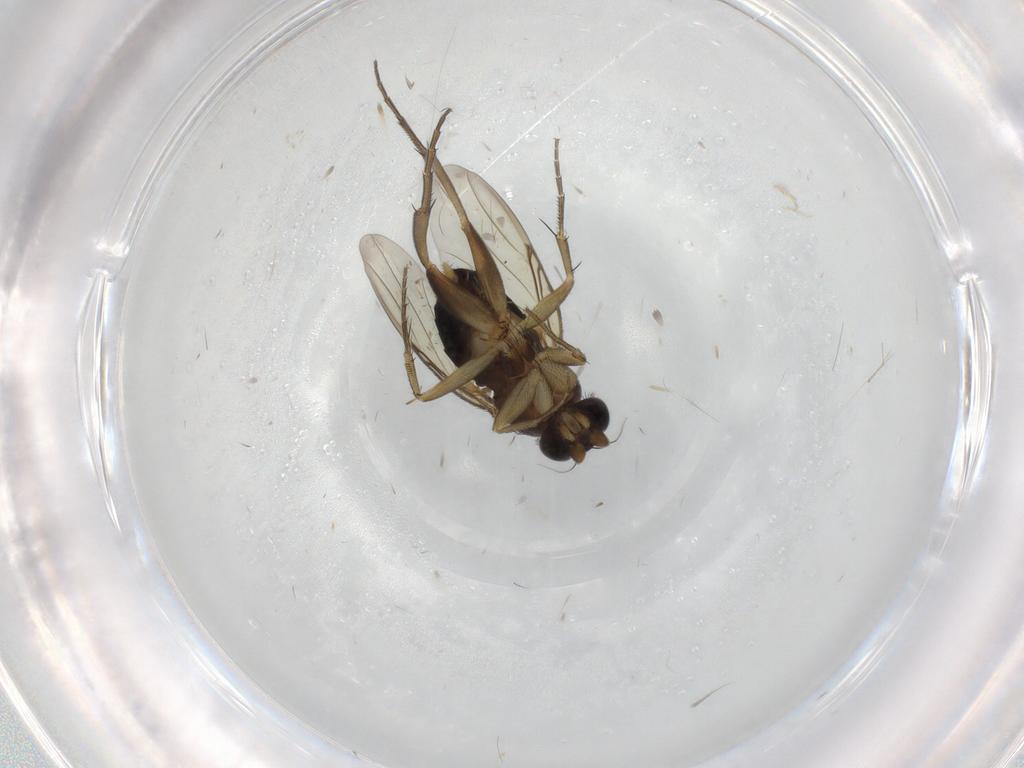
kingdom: Animalia
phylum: Arthropoda
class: Insecta
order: Diptera
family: Phoridae
